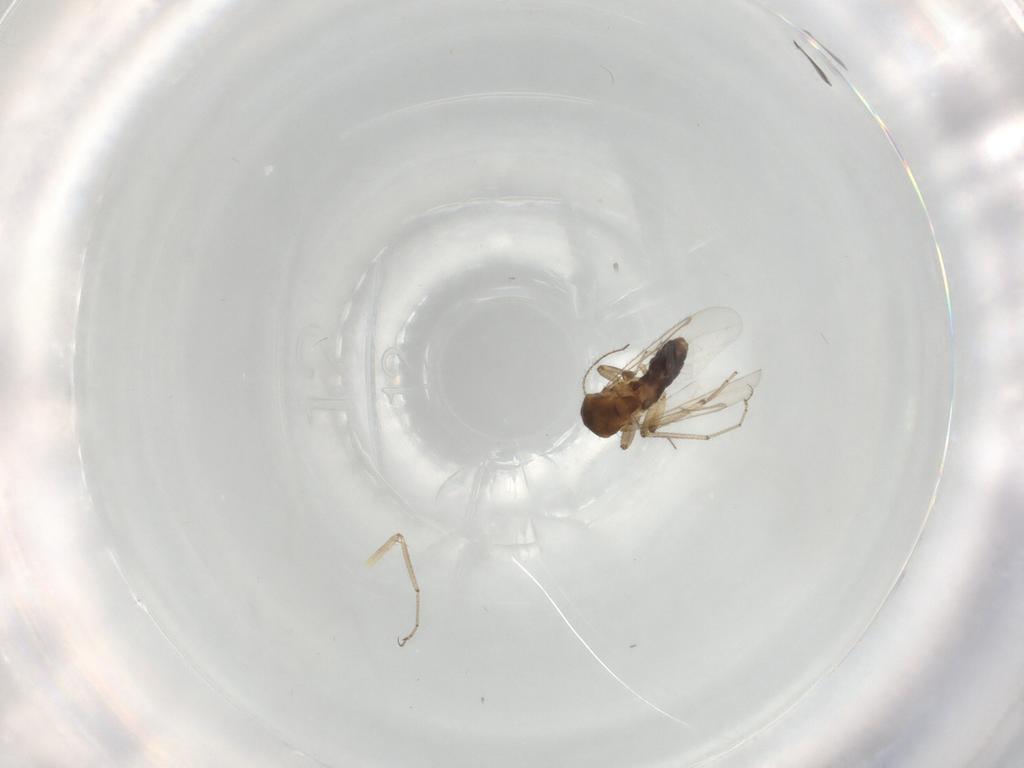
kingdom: Animalia
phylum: Arthropoda
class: Insecta
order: Diptera
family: Ceratopogonidae
